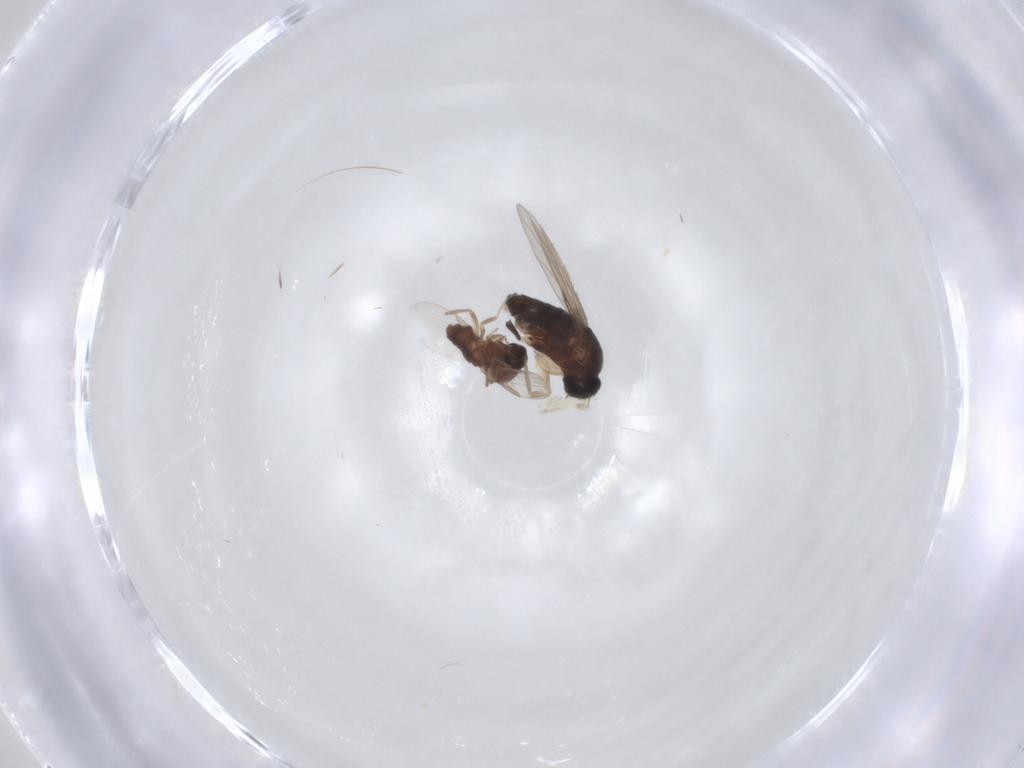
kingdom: Animalia
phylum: Arthropoda
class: Insecta
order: Diptera
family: Ceratopogonidae
